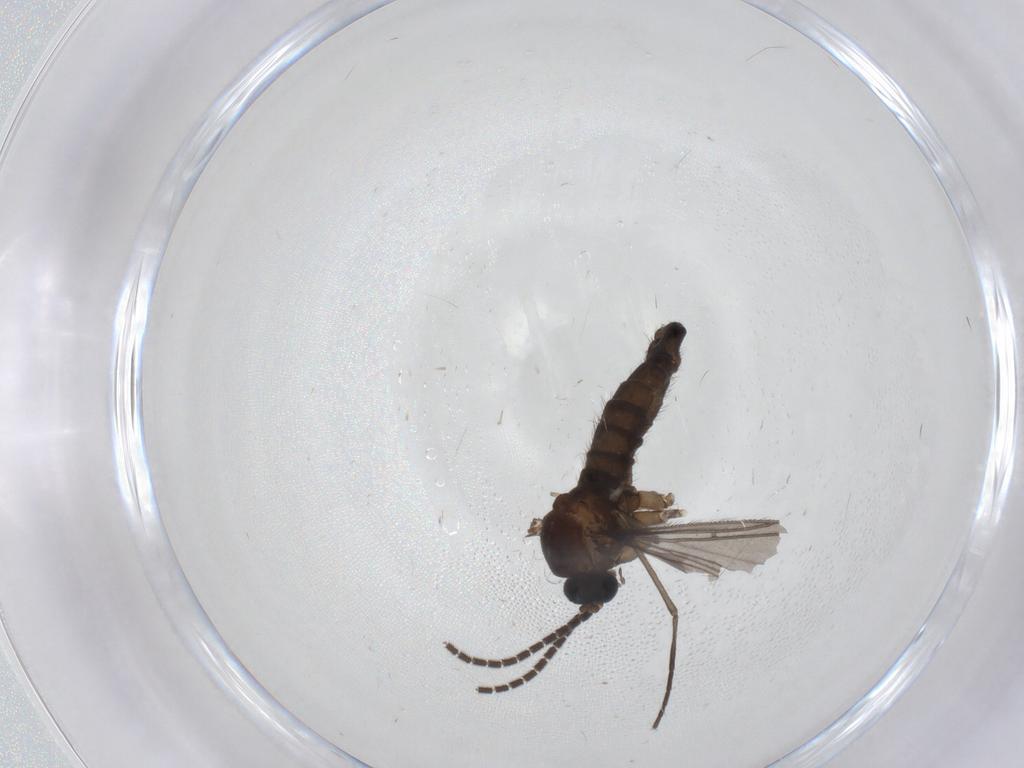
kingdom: Animalia
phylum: Arthropoda
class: Insecta
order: Diptera
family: Sciaridae
